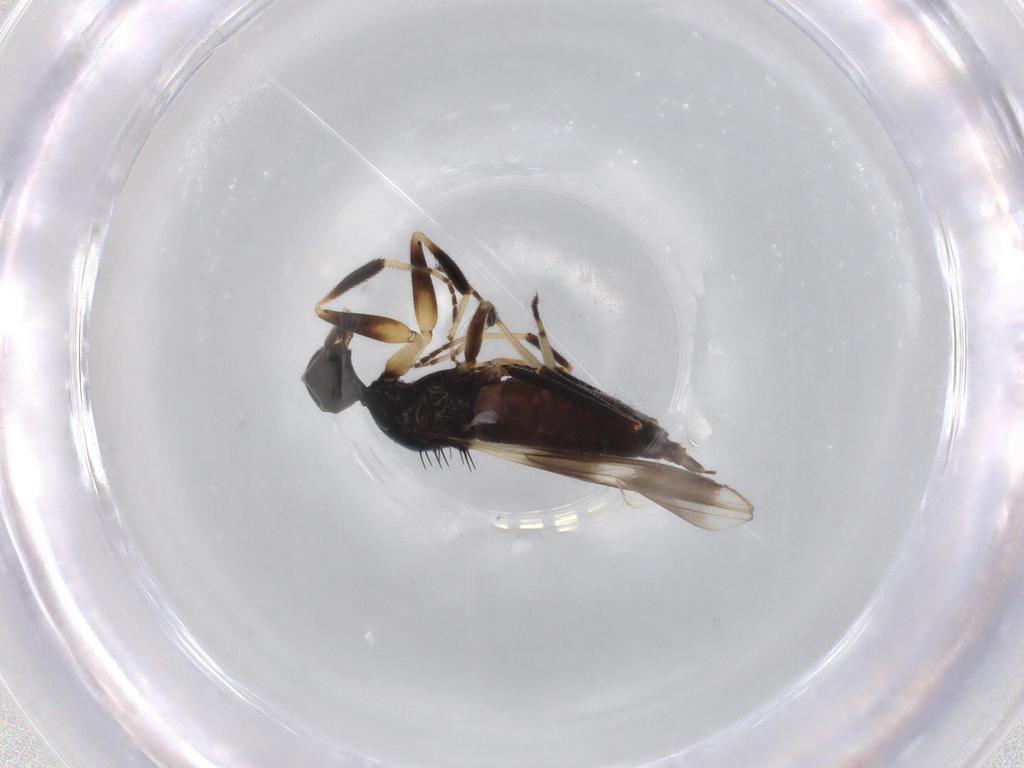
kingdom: Animalia
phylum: Arthropoda
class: Insecta
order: Diptera
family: Hybotidae
